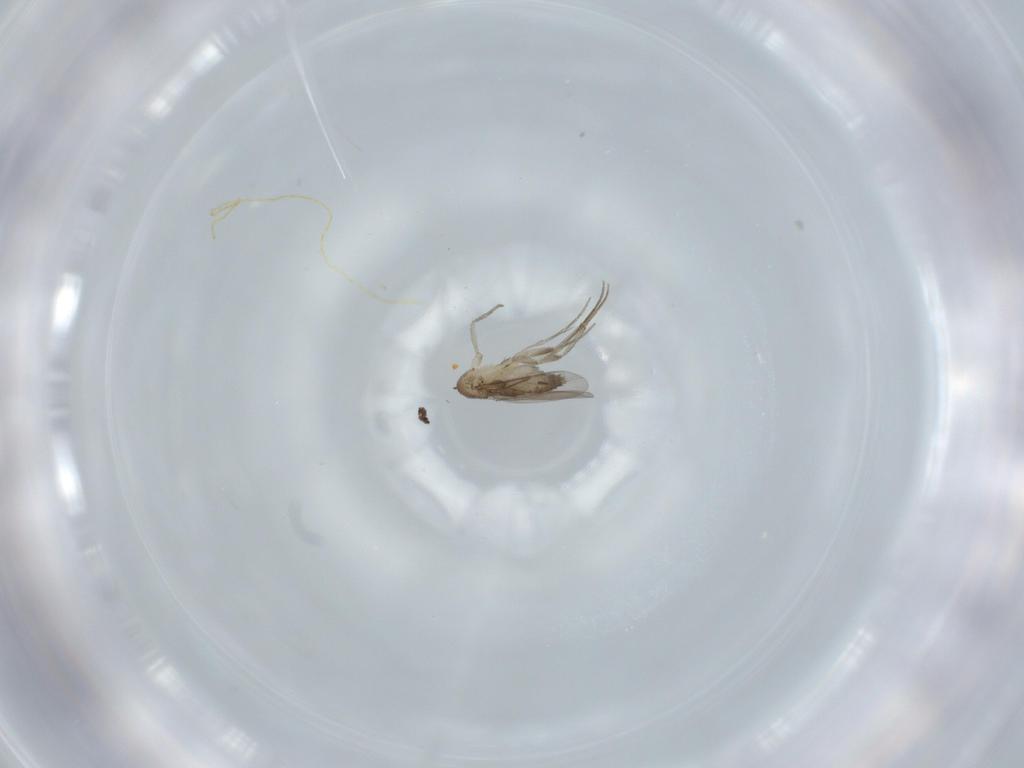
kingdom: Animalia
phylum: Arthropoda
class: Insecta
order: Diptera
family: Phoridae
